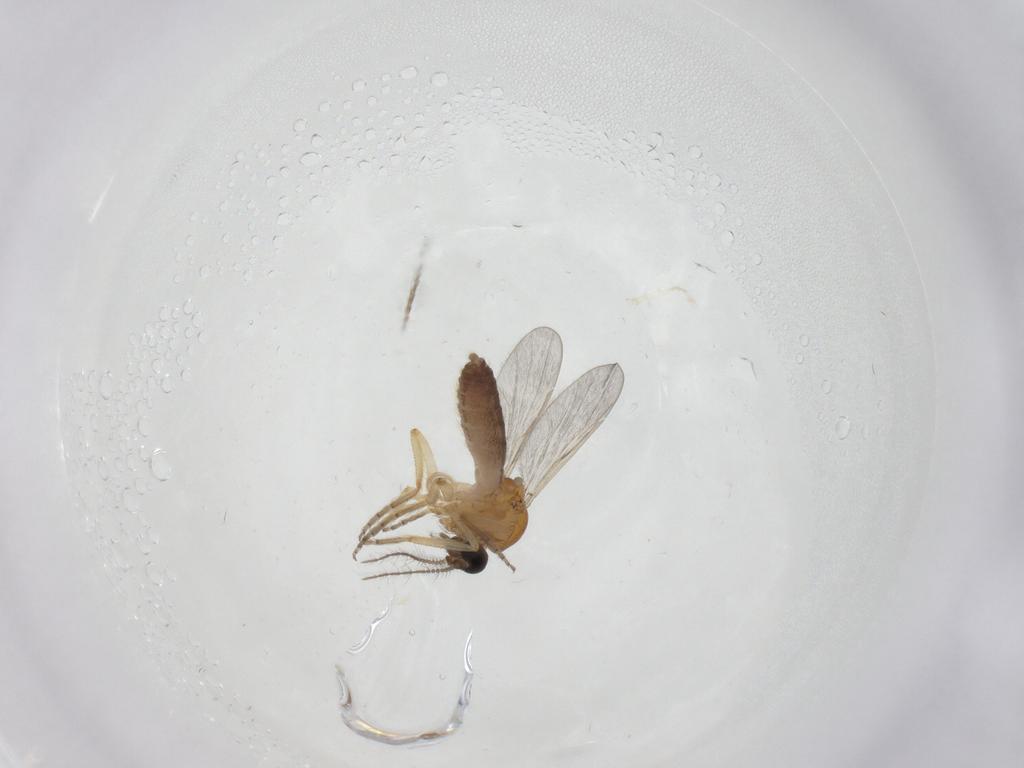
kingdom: Animalia
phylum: Arthropoda
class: Insecta
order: Diptera
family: Ceratopogonidae
